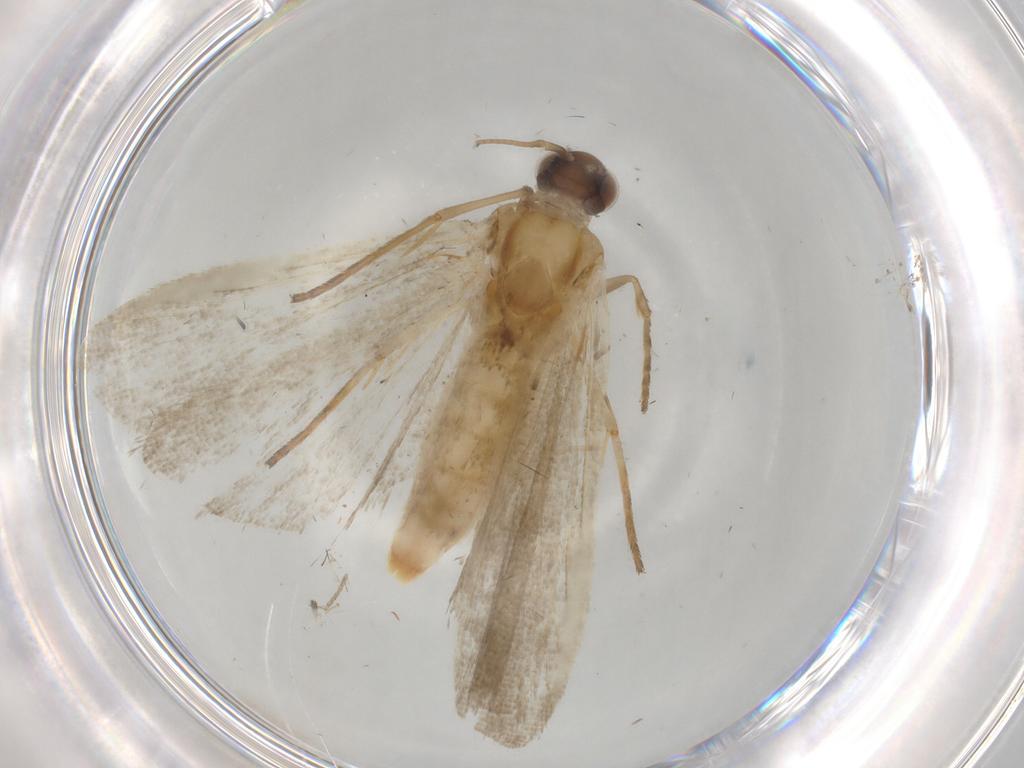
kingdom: Animalia
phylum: Arthropoda
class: Insecta
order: Lepidoptera
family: Noctuidae
